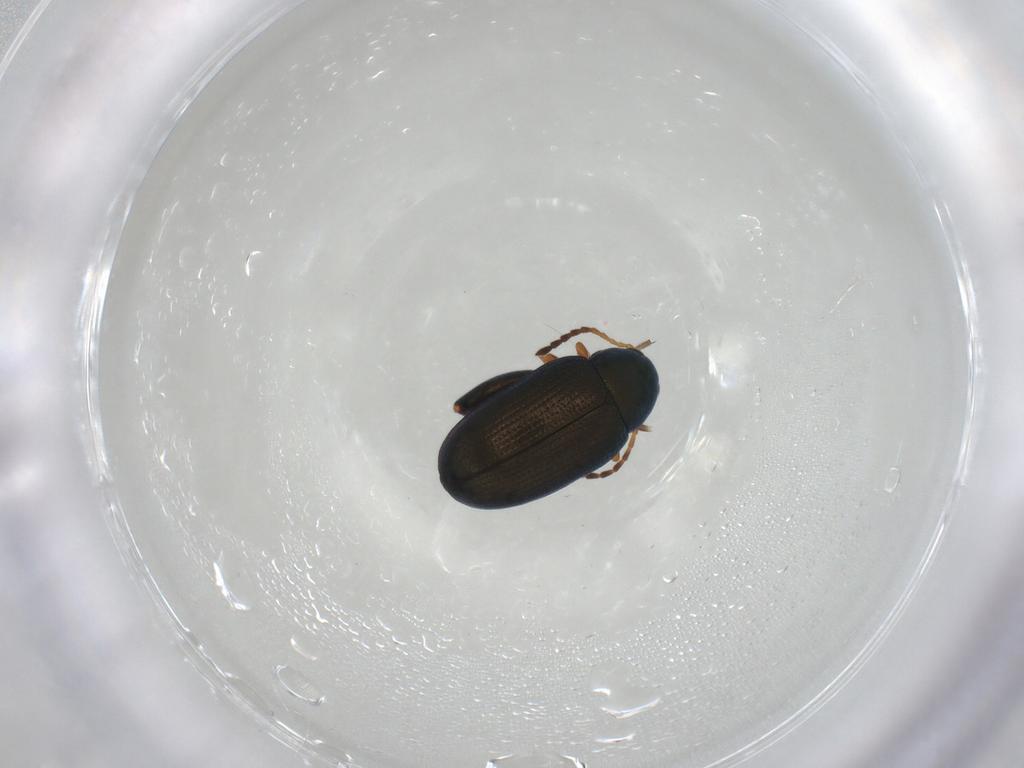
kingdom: Animalia
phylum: Arthropoda
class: Insecta
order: Coleoptera
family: Chrysomelidae
